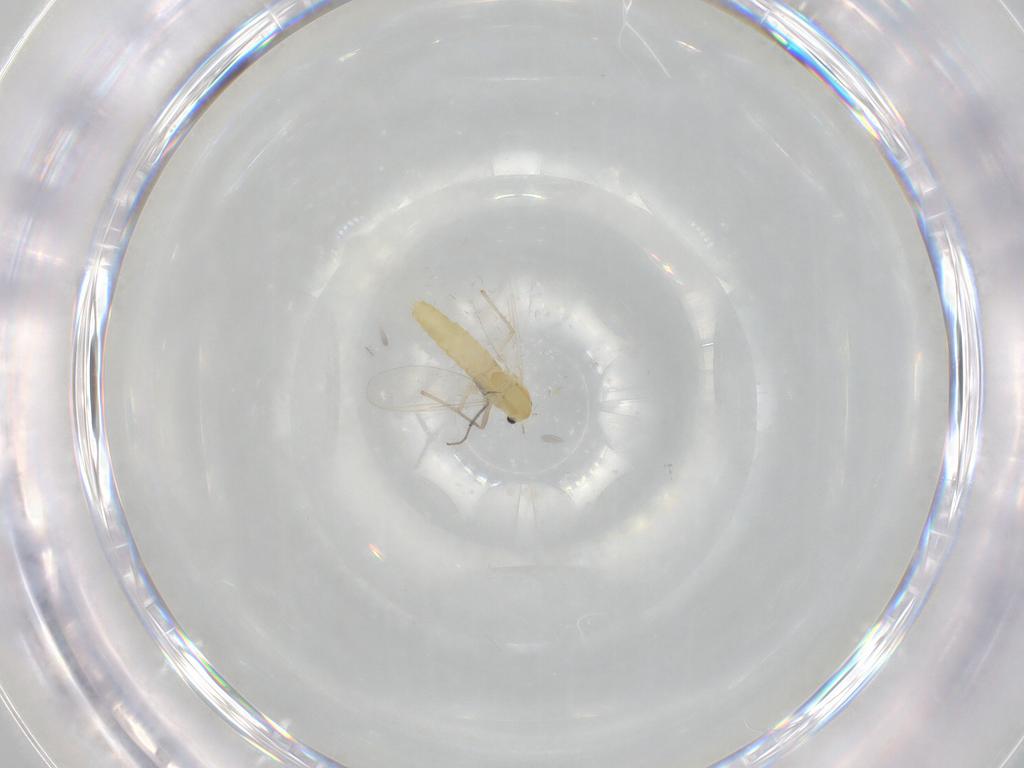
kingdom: Animalia
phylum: Arthropoda
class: Insecta
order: Diptera
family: Chironomidae
